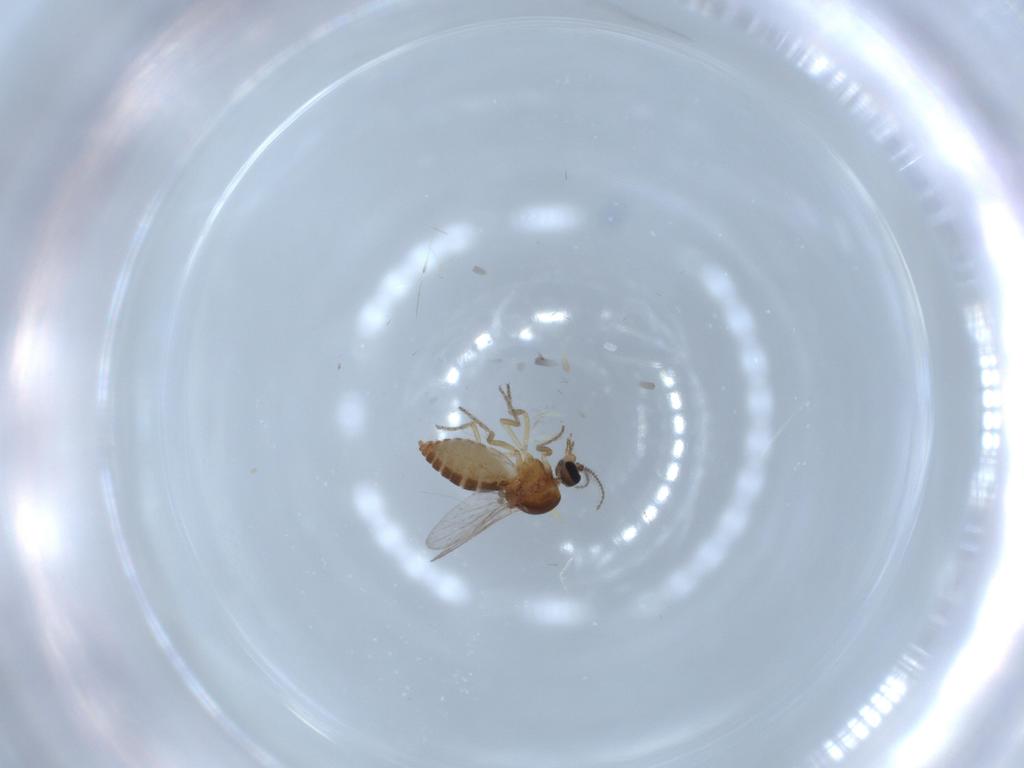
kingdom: Animalia
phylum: Arthropoda
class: Insecta
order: Diptera
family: Ceratopogonidae
